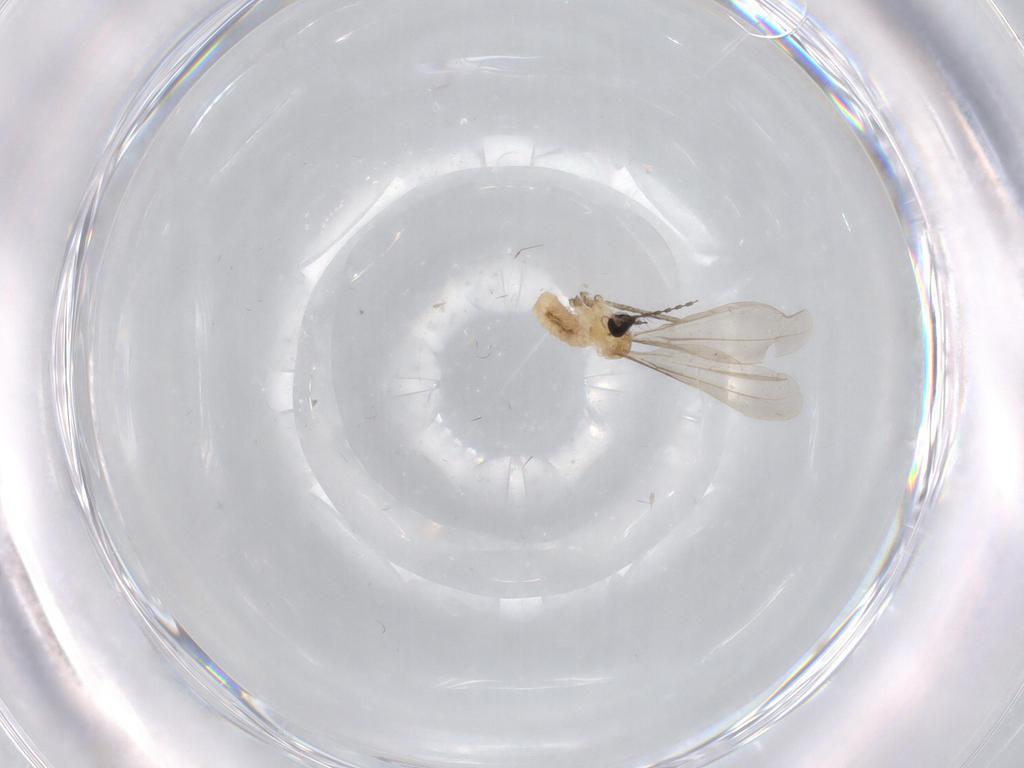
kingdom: Animalia
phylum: Arthropoda
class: Insecta
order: Diptera
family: Cecidomyiidae
